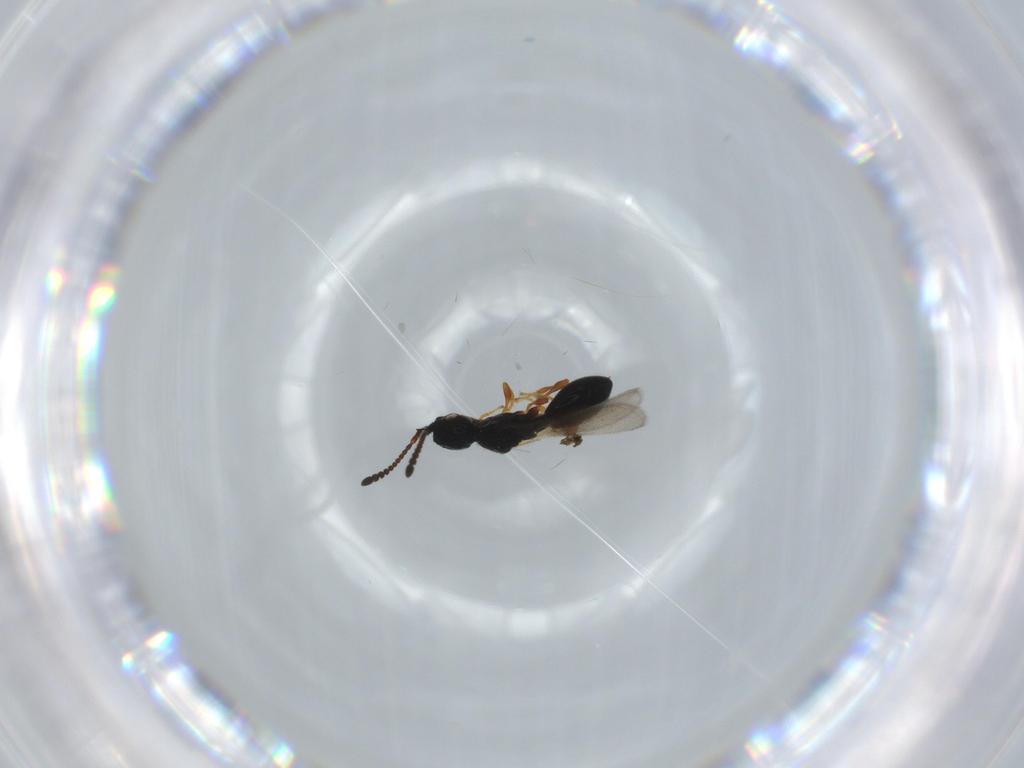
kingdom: Animalia
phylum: Arthropoda
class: Insecta
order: Hymenoptera
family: Diapriidae
